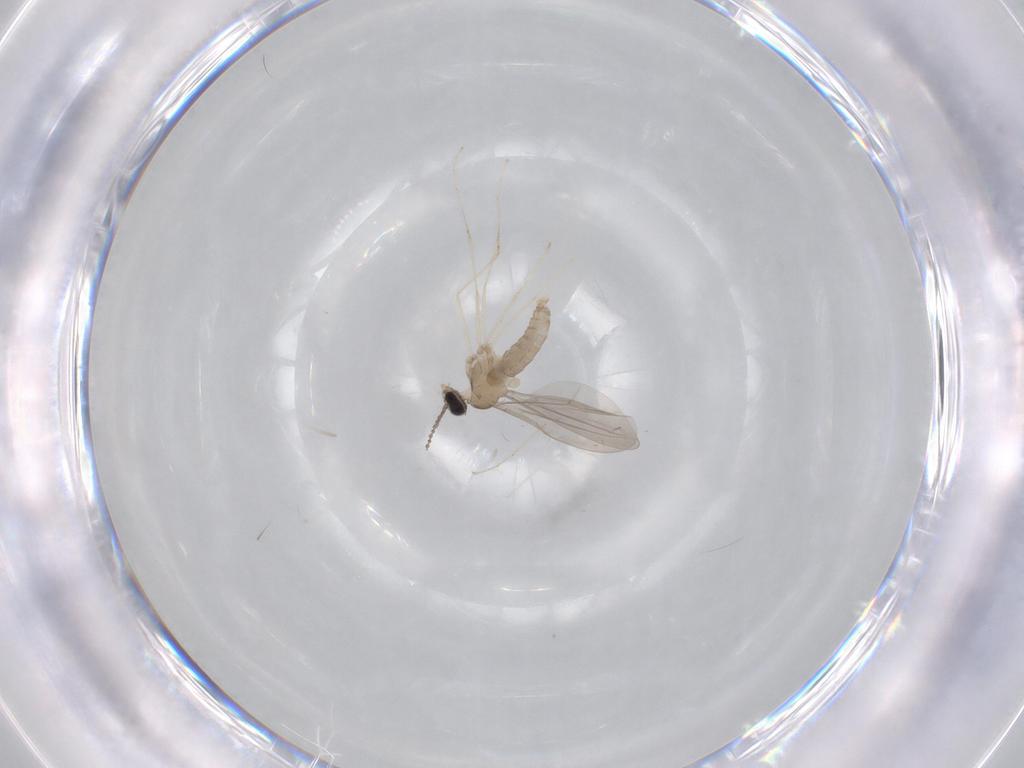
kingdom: Animalia
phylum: Arthropoda
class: Insecta
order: Diptera
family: Cecidomyiidae
